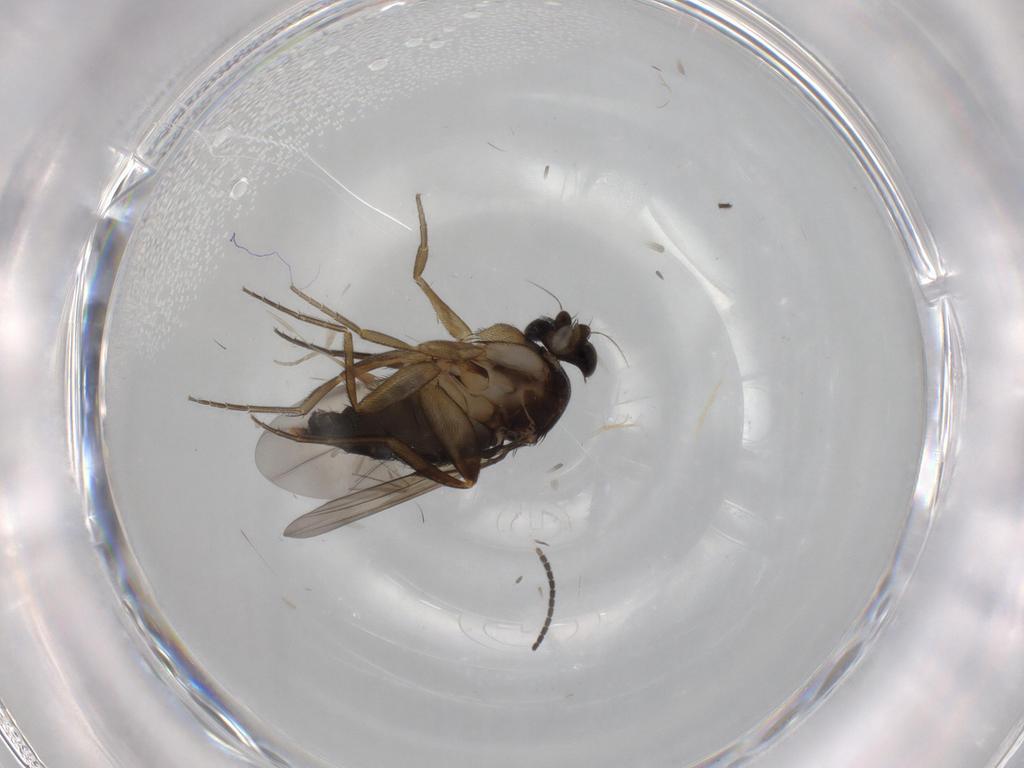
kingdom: Animalia
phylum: Arthropoda
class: Insecta
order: Diptera
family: Phoridae
